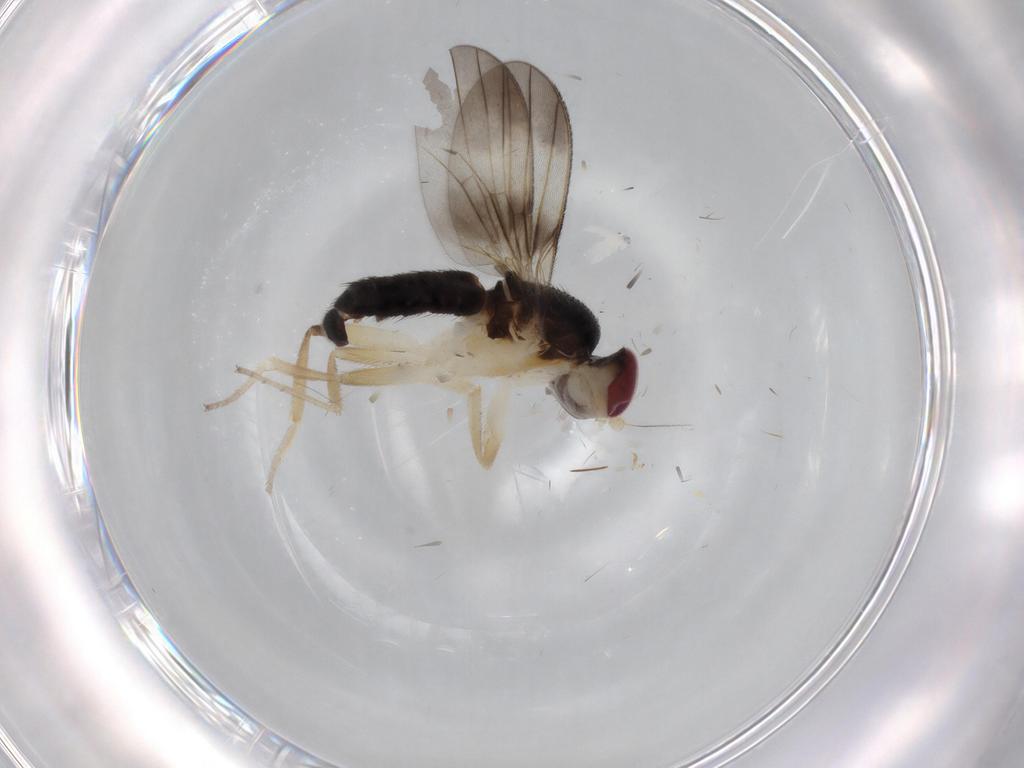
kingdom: Animalia
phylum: Arthropoda
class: Insecta
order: Diptera
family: Clusiidae
